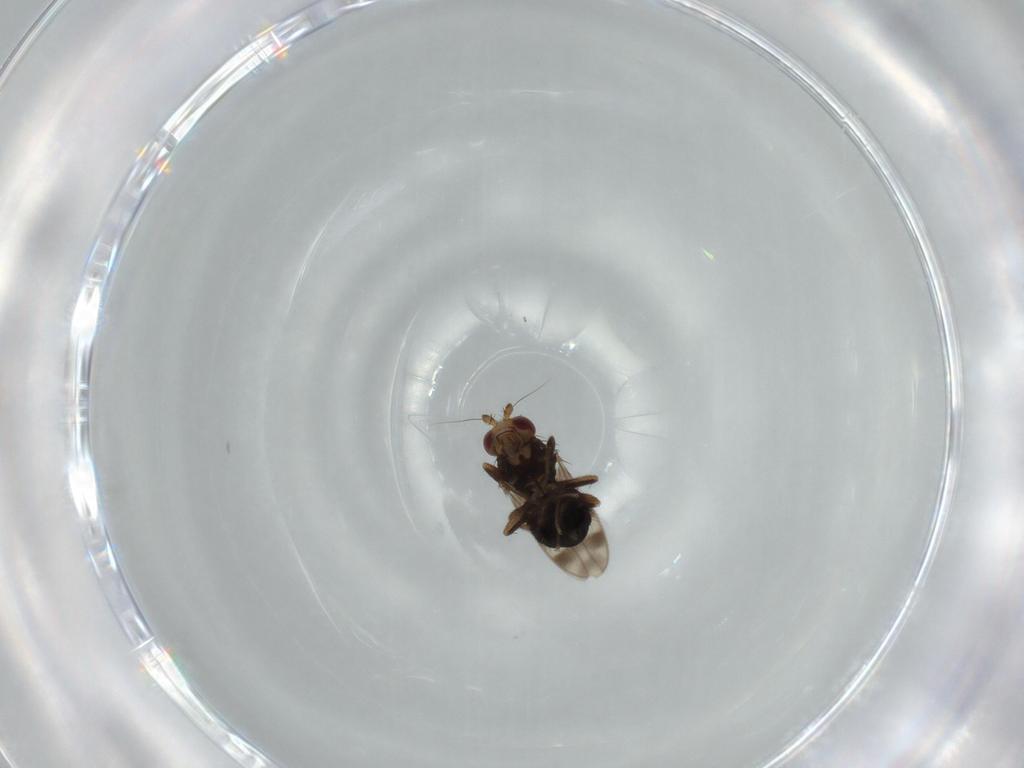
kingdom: Animalia
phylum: Arthropoda
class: Insecta
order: Diptera
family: Sphaeroceridae
